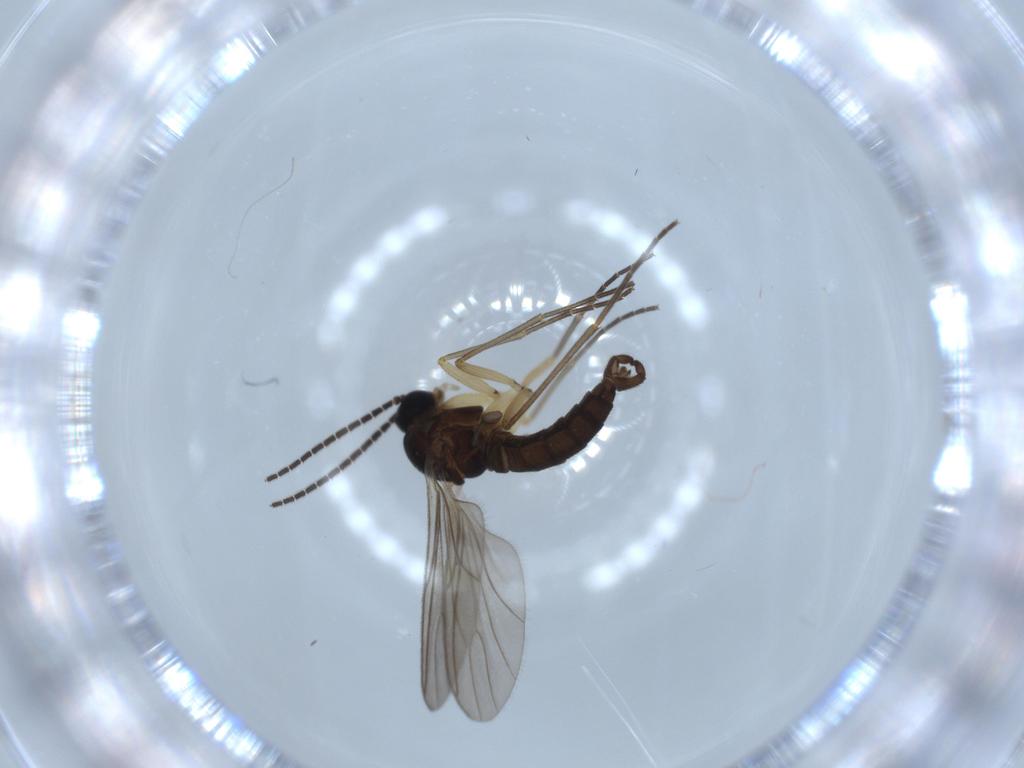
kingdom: Animalia
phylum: Arthropoda
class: Insecta
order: Diptera
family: Sciaridae
